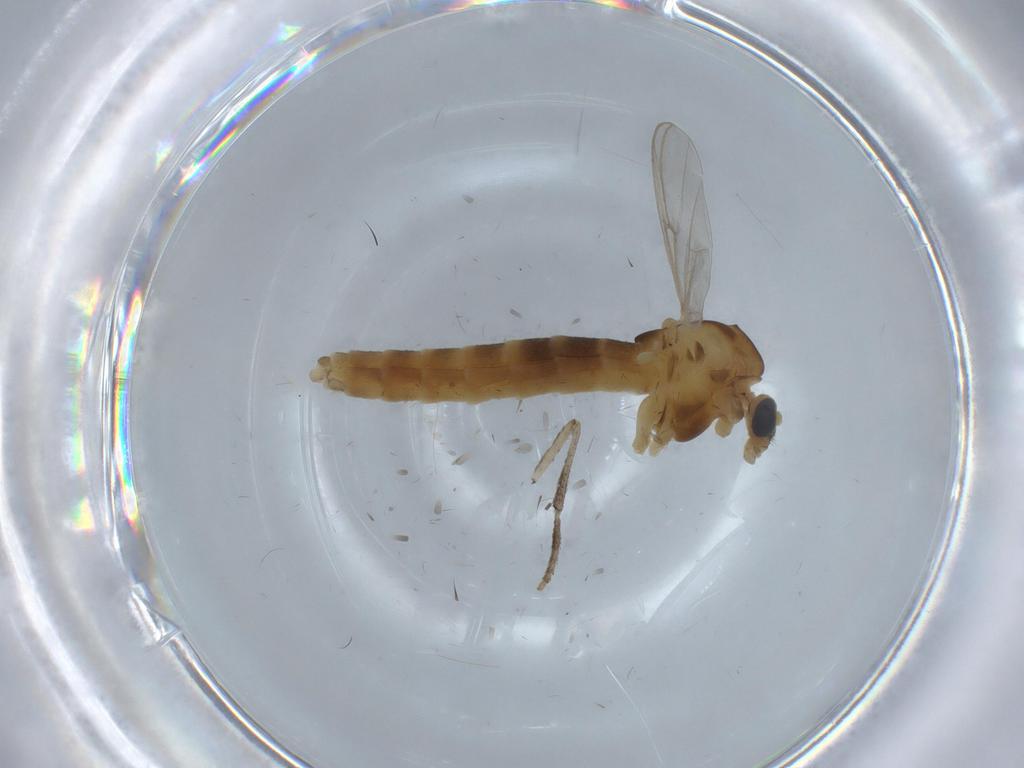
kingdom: Animalia
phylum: Arthropoda
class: Insecta
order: Diptera
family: Chironomidae
